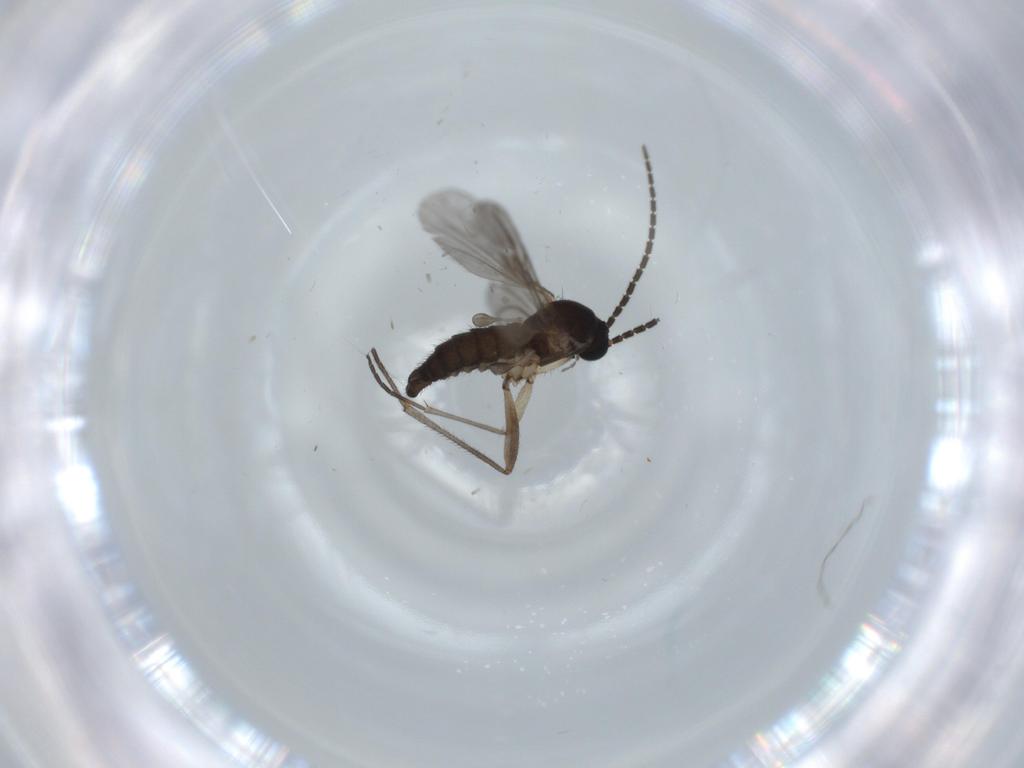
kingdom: Animalia
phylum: Arthropoda
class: Insecta
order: Diptera
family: Sciaridae
